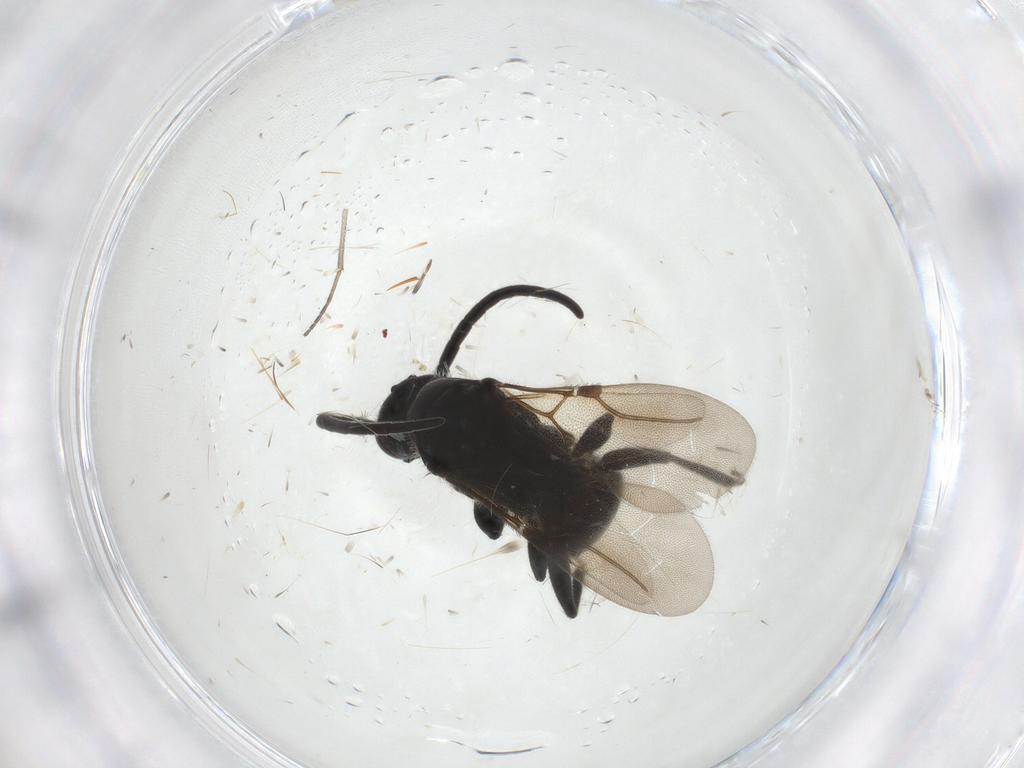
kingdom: Animalia
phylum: Arthropoda
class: Insecta
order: Hymenoptera
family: Bethylidae
